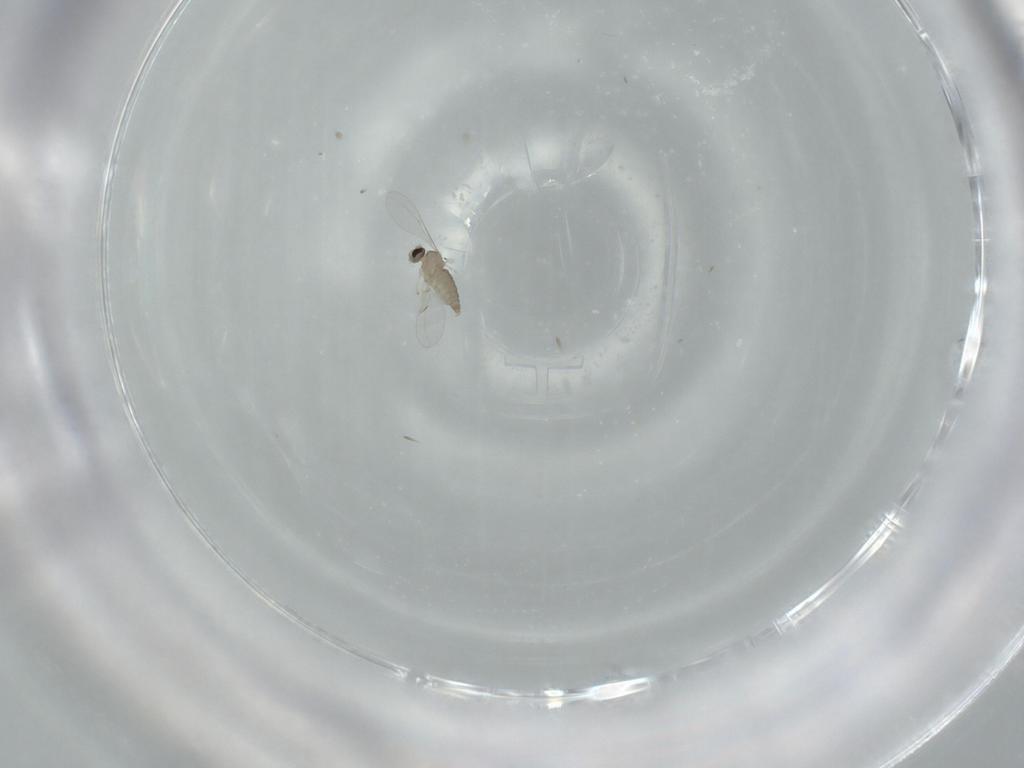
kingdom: Animalia
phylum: Arthropoda
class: Insecta
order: Diptera
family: Cecidomyiidae
